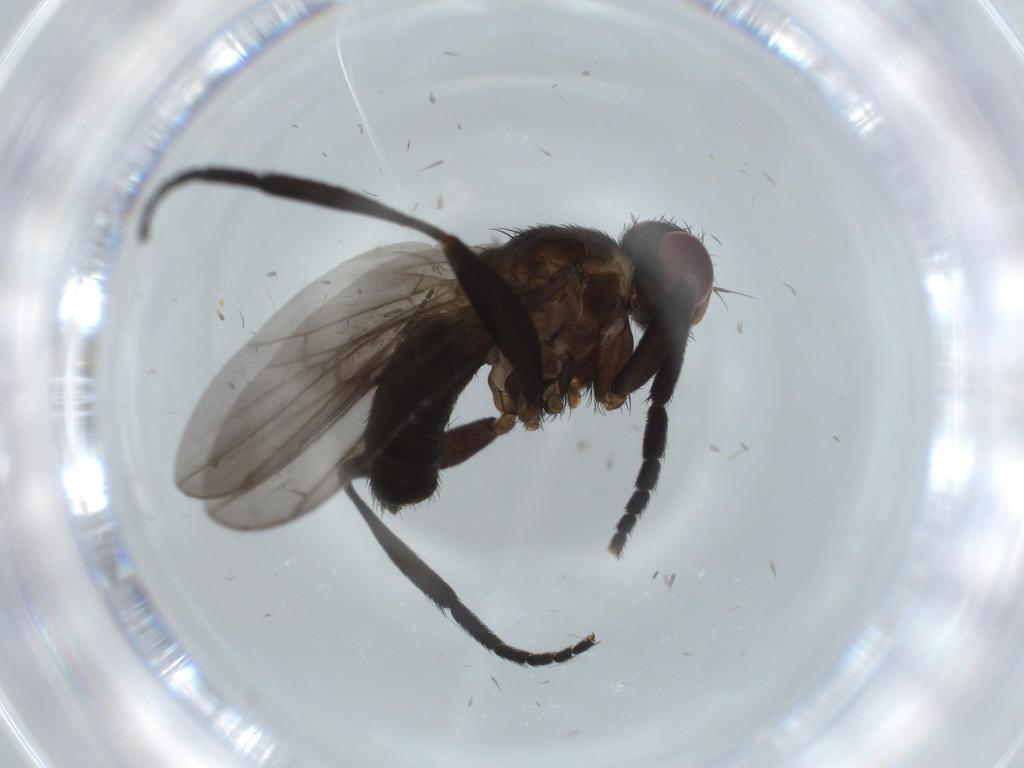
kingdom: Animalia
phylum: Arthropoda
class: Insecta
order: Diptera
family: Calliphoridae
